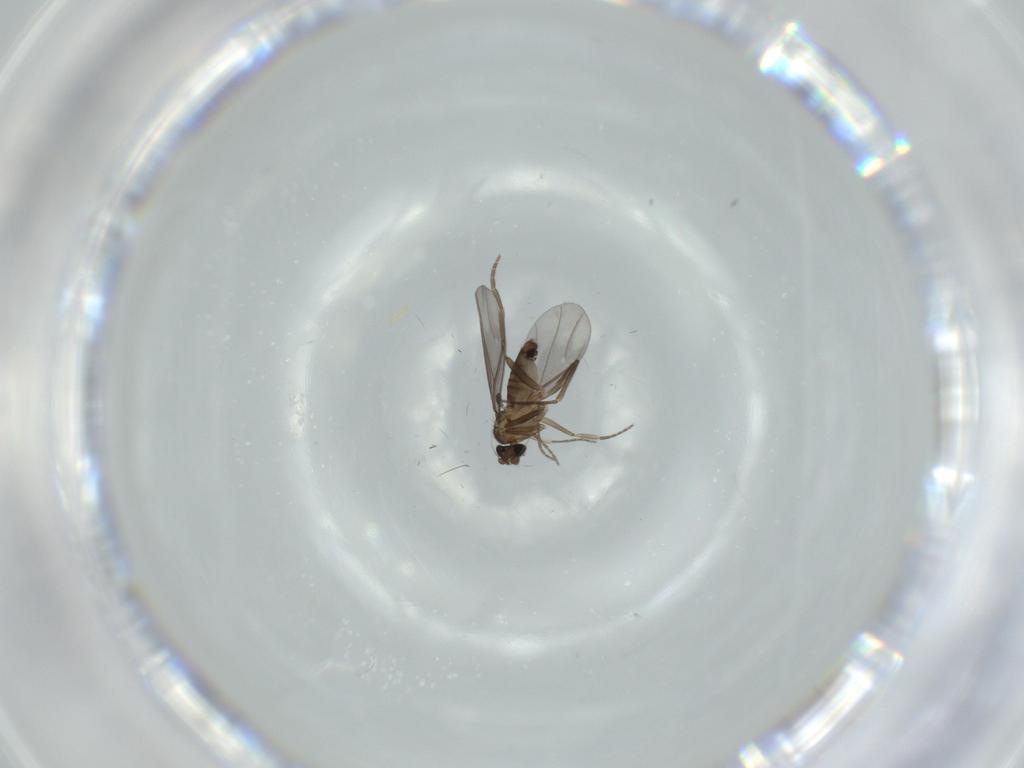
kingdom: Animalia
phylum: Arthropoda
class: Insecta
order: Diptera
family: Phoridae
